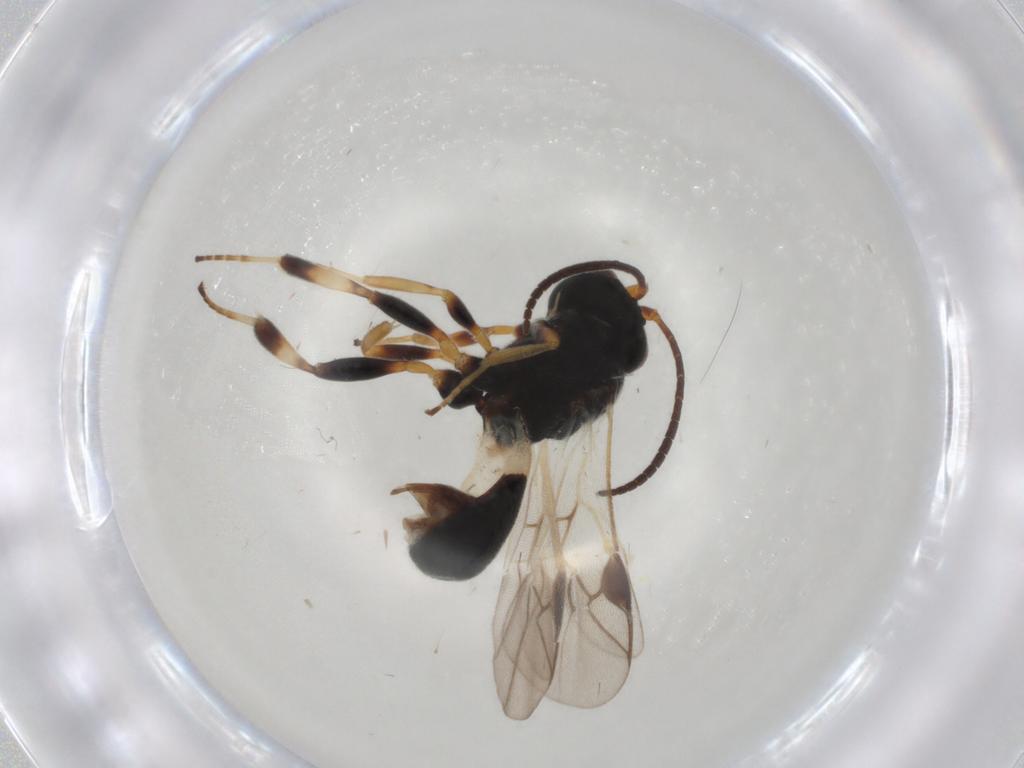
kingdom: Animalia
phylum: Arthropoda
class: Insecta
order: Hymenoptera
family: Braconidae
